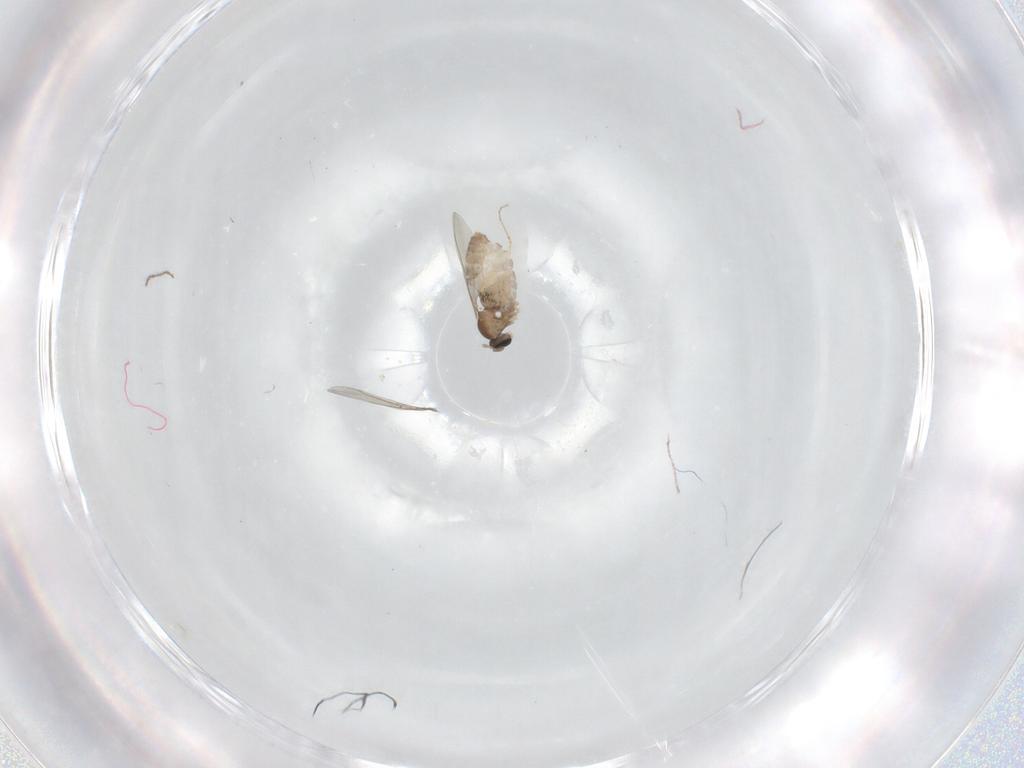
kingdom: Animalia
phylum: Arthropoda
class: Insecta
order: Diptera
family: Cecidomyiidae
